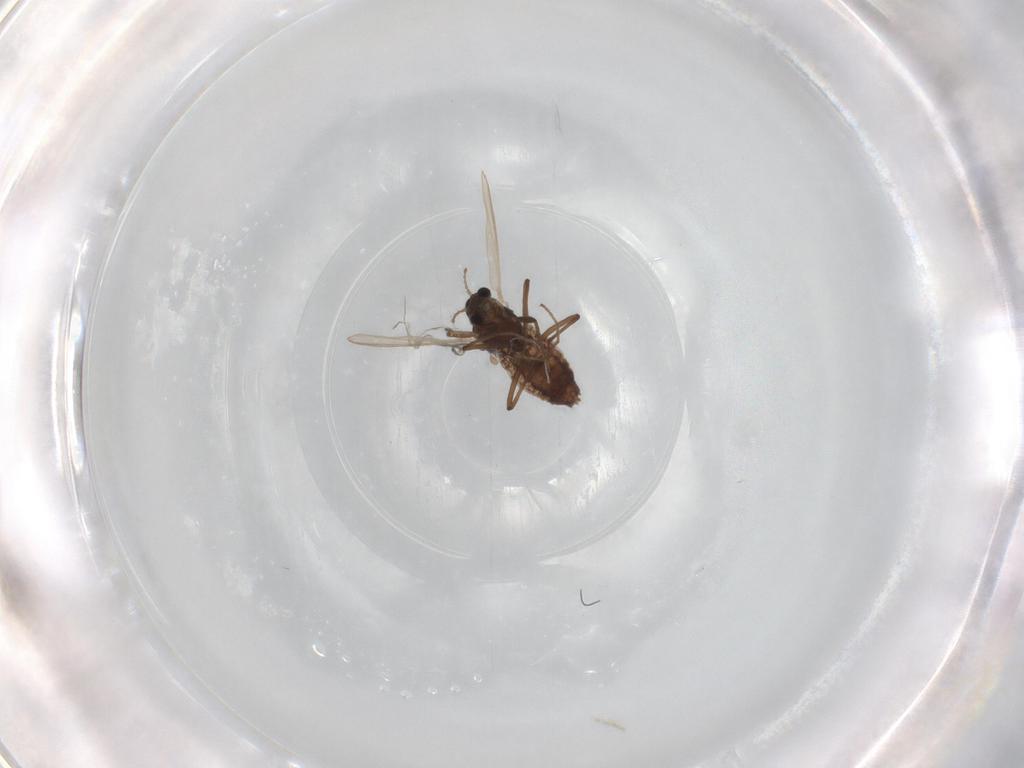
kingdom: Animalia
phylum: Arthropoda
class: Insecta
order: Diptera
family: Chironomidae
